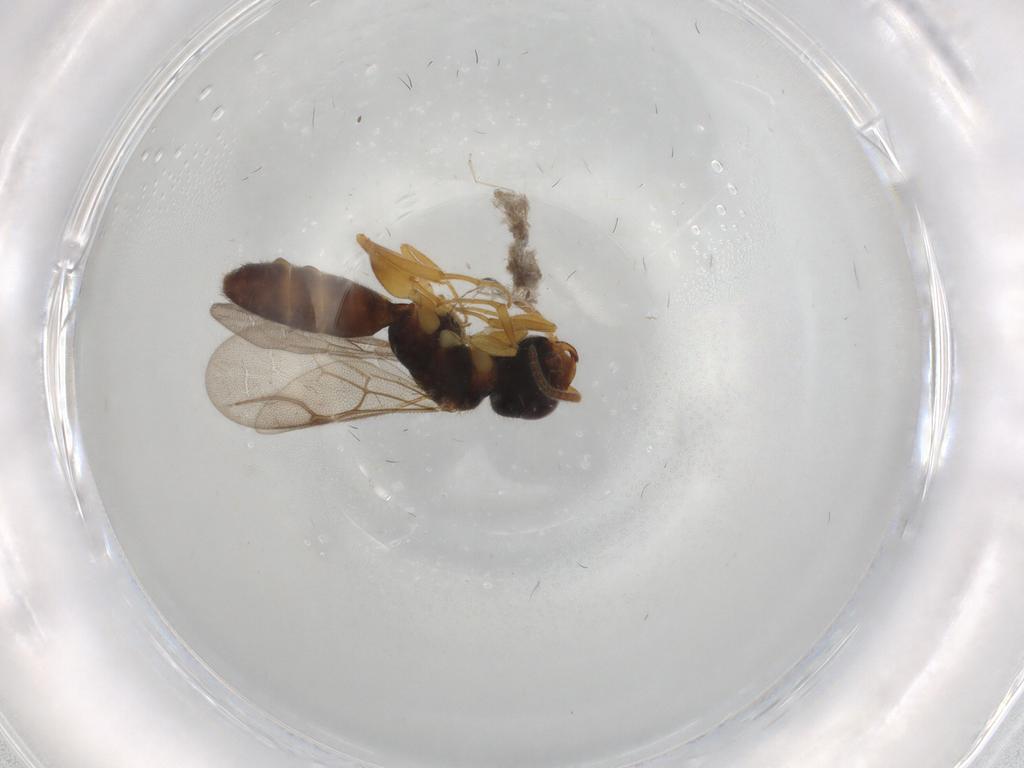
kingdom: Animalia
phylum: Arthropoda
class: Insecta
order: Hymenoptera
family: Bethylidae
